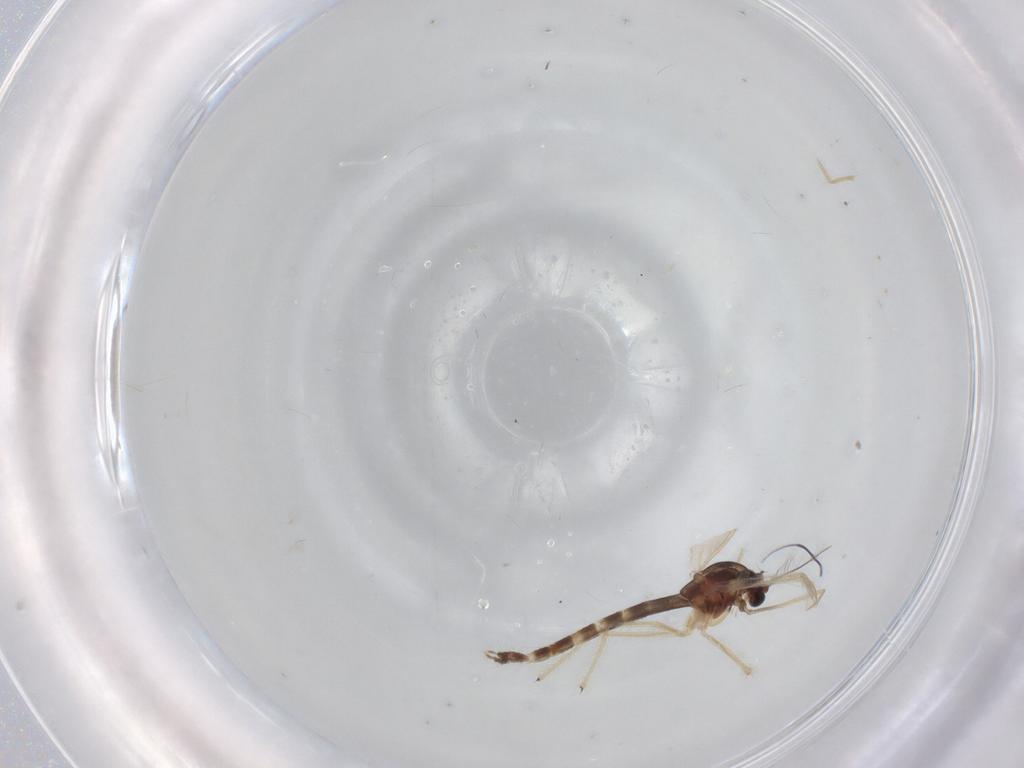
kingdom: Animalia
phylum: Arthropoda
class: Insecta
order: Diptera
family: Chironomidae
